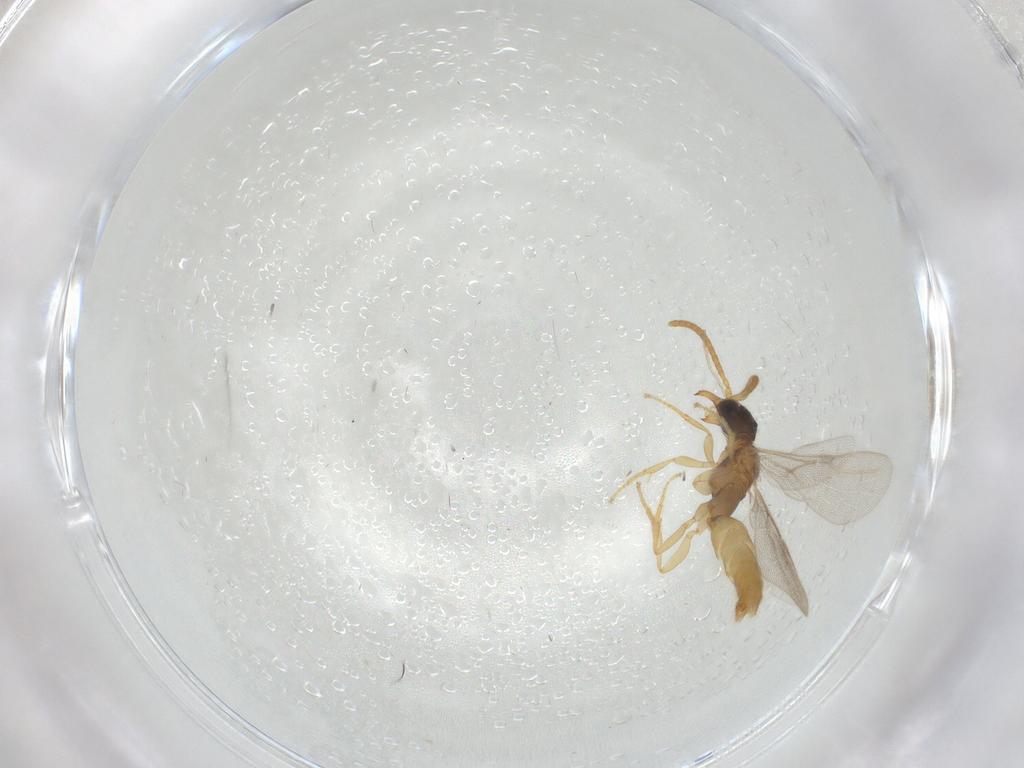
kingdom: Animalia
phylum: Arthropoda
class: Insecta
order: Hymenoptera
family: Bethylidae
